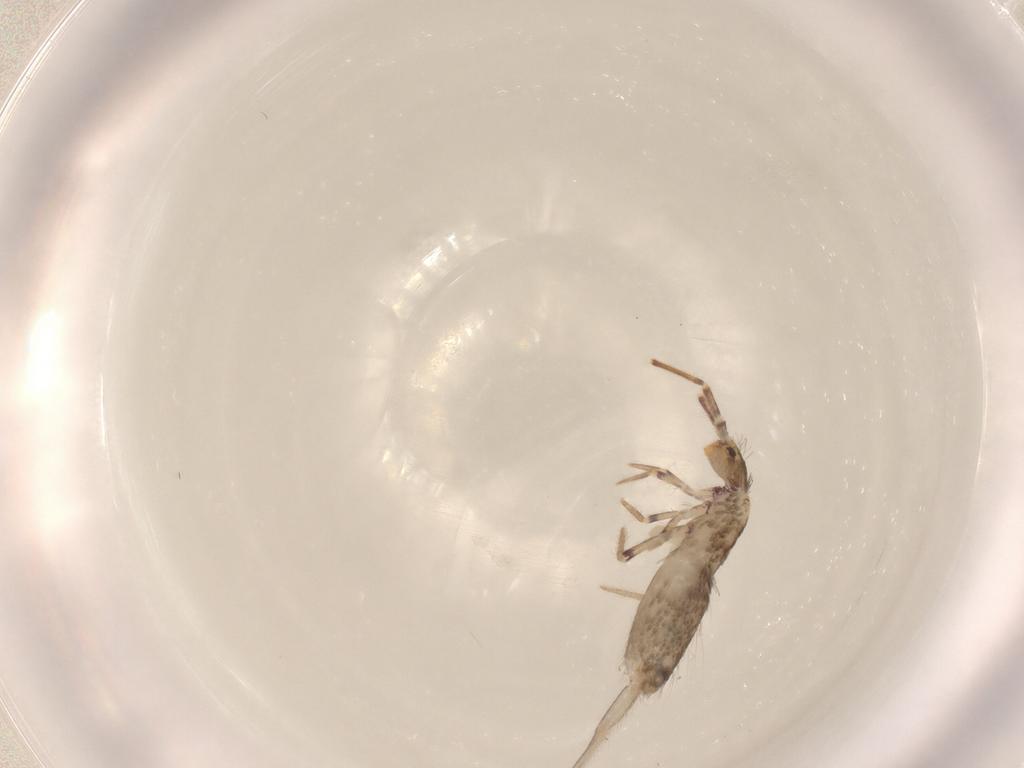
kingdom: Animalia
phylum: Arthropoda
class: Collembola
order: Entomobryomorpha
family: Entomobryidae
